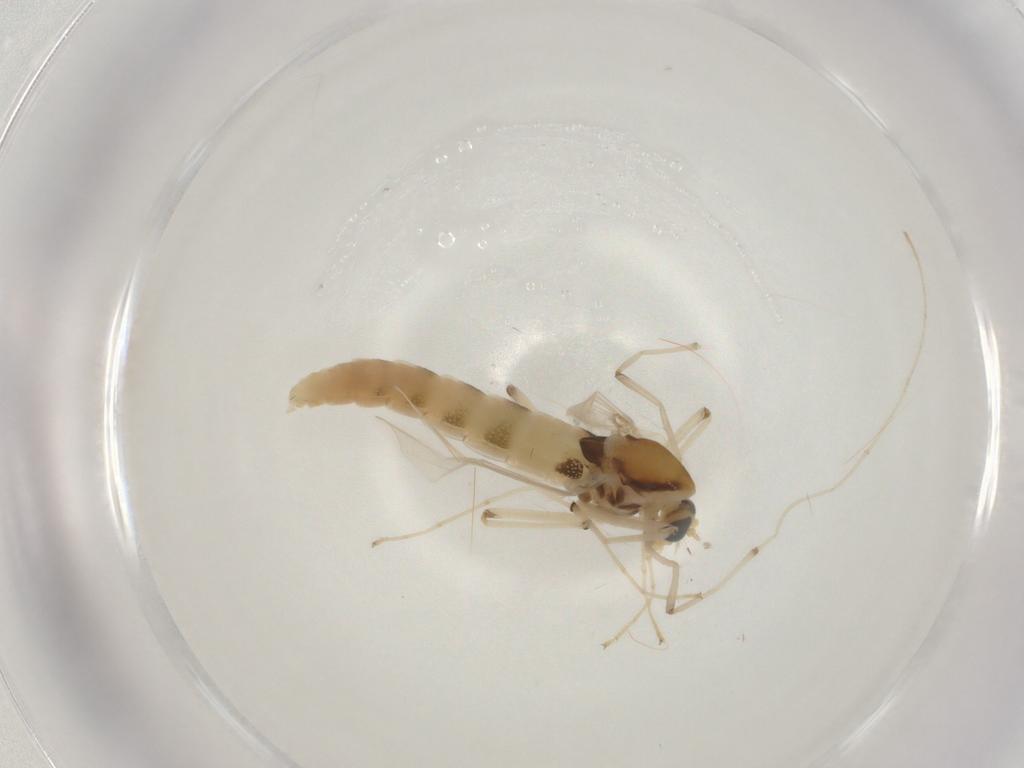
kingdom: Animalia
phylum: Arthropoda
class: Insecta
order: Diptera
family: Chironomidae
